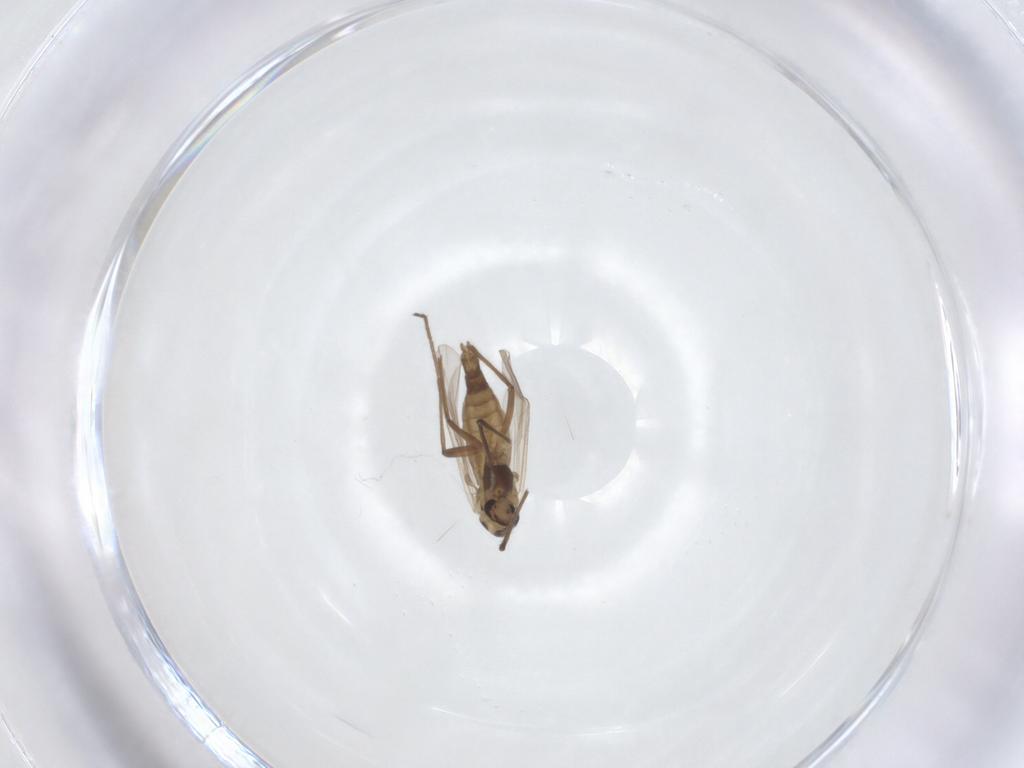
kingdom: Animalia
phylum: Arthropoda
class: Insecta
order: Diptera
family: Chironomidae
